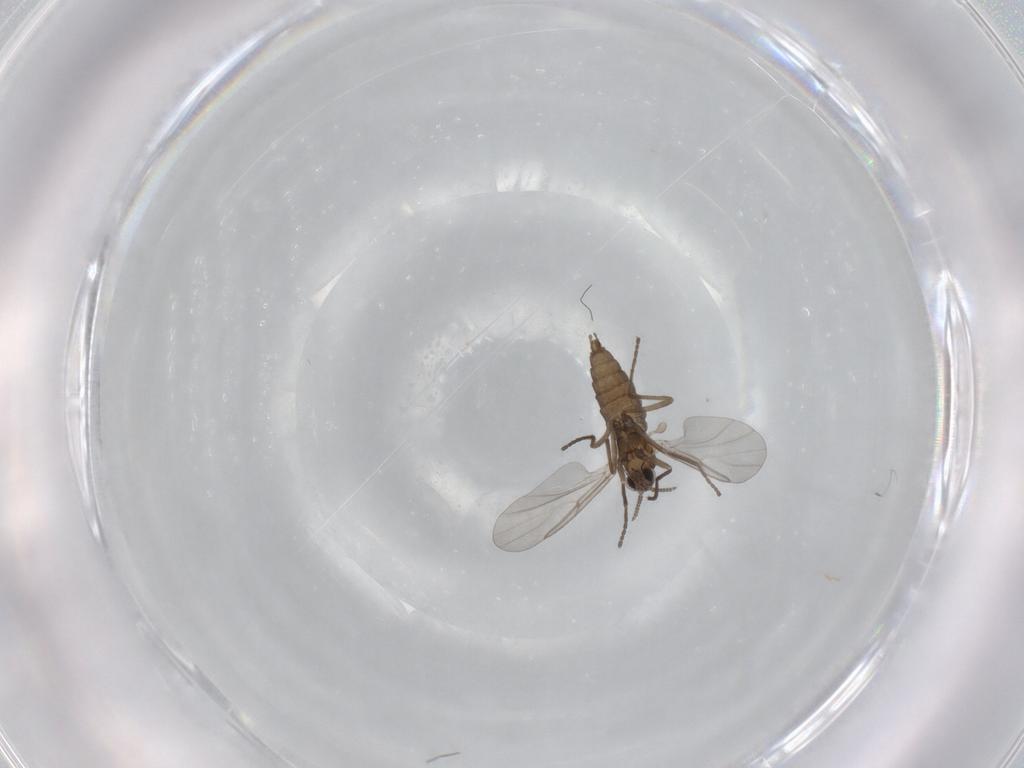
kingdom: Animalia
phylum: Arthropoda
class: Insecta
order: Diptera
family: Cecidomyiidae
